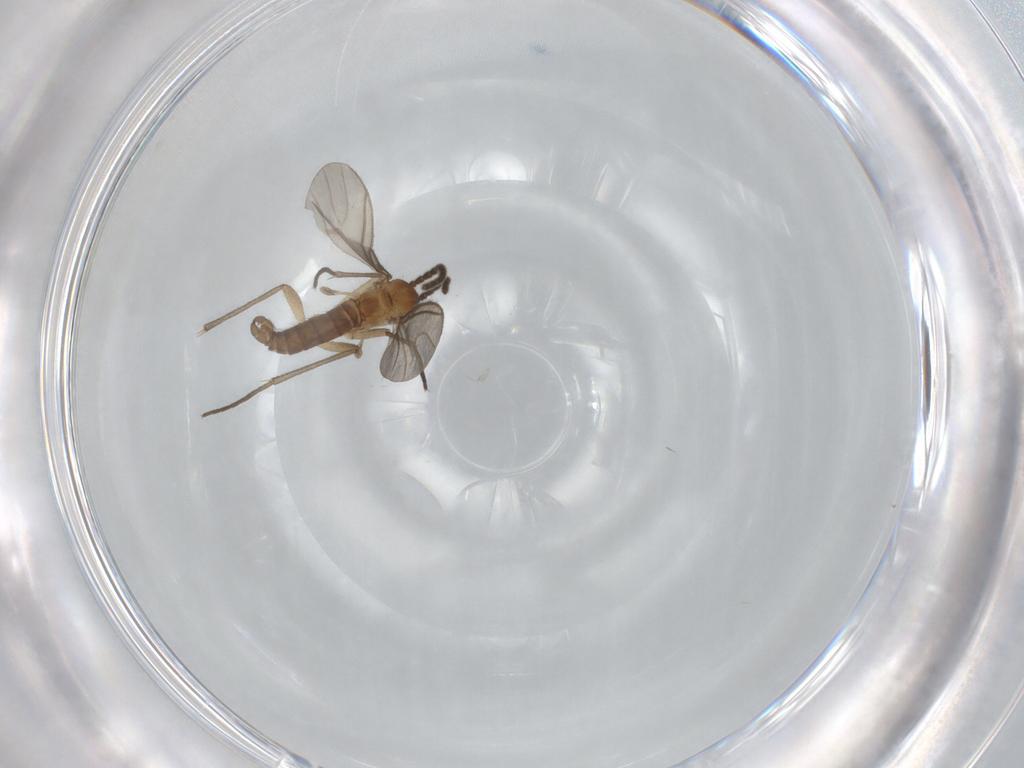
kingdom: Animalia
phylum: Arthropoda
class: Insecta
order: Diptera
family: Sciaridae
